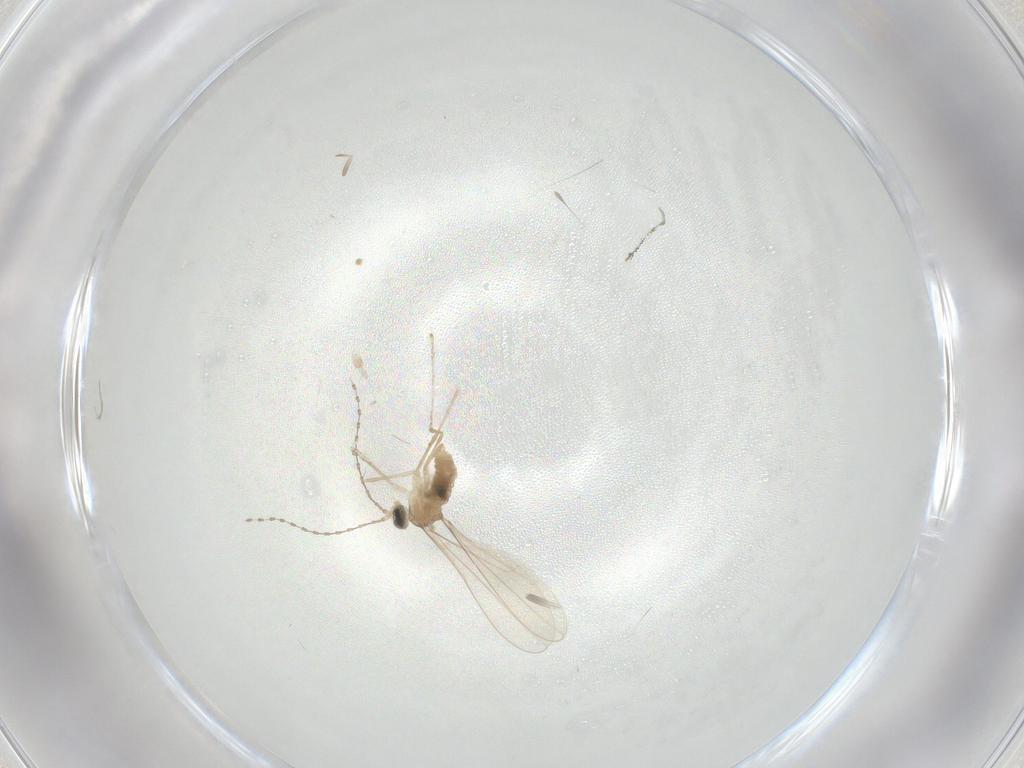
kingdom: Animalia
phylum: Arthropoda
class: Insecta
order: Diptera
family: Cecidomyiidae
